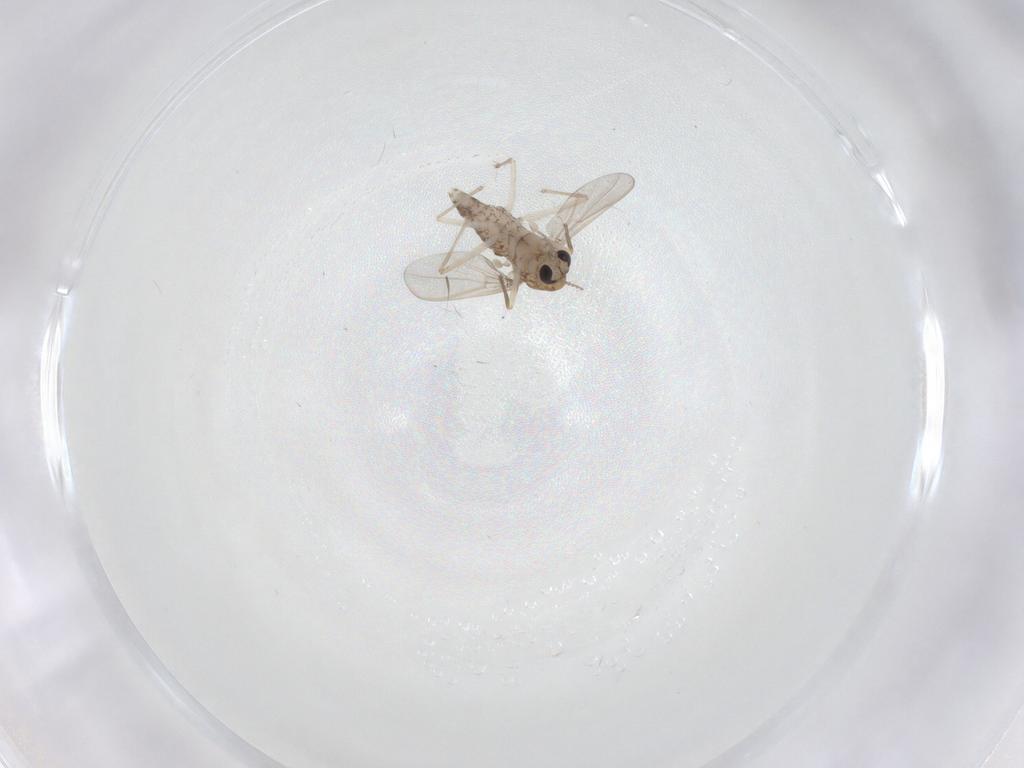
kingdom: Animalia
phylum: Arthropoda
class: Insecta
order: Diptera
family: Chironomidae
